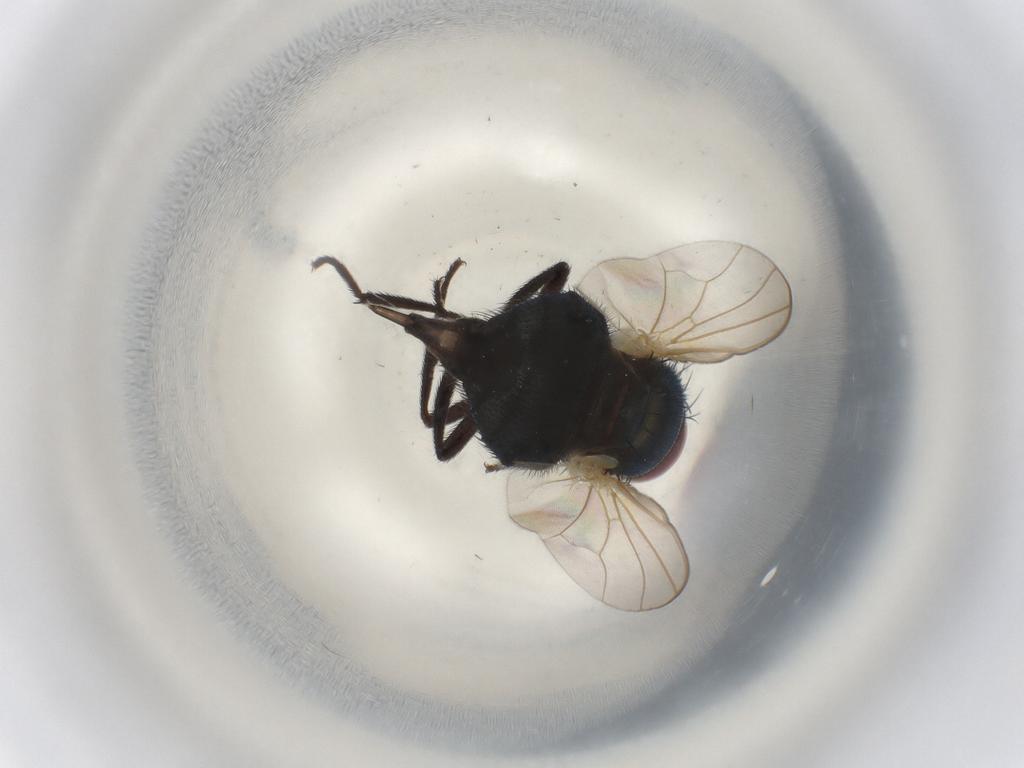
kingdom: Animalia
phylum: Arthropoda
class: Insecta
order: Diptera
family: Lonchaeidae
